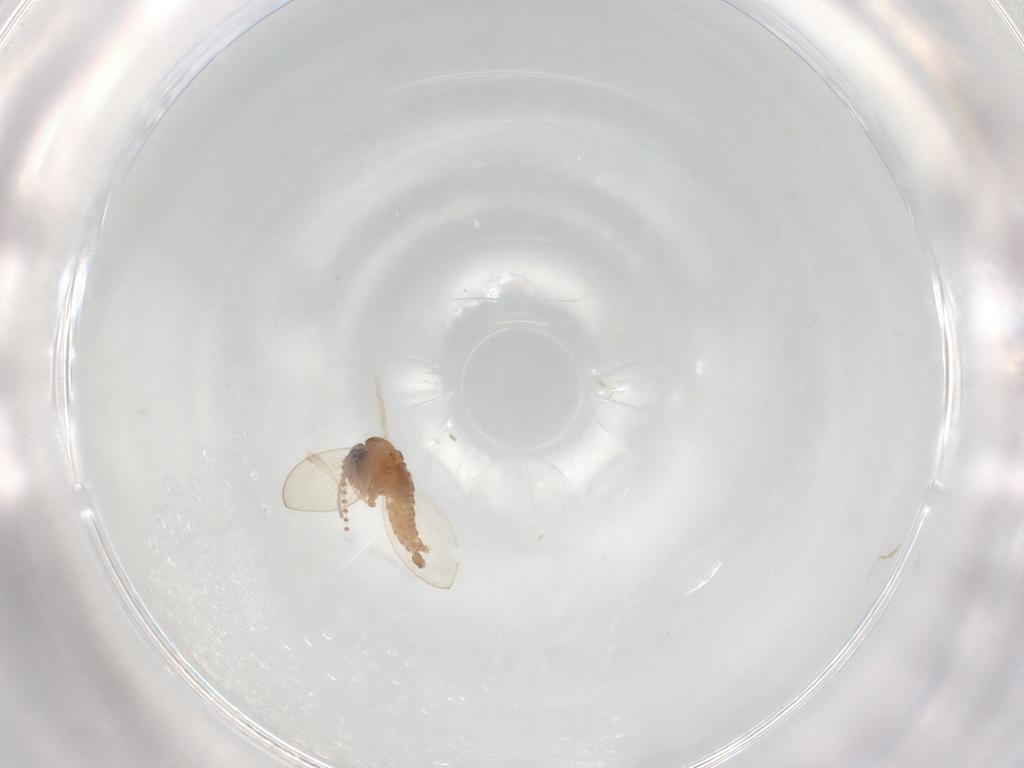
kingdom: Animalia
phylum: Arthropoda
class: Insecta
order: Diptera
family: Psychodidae
